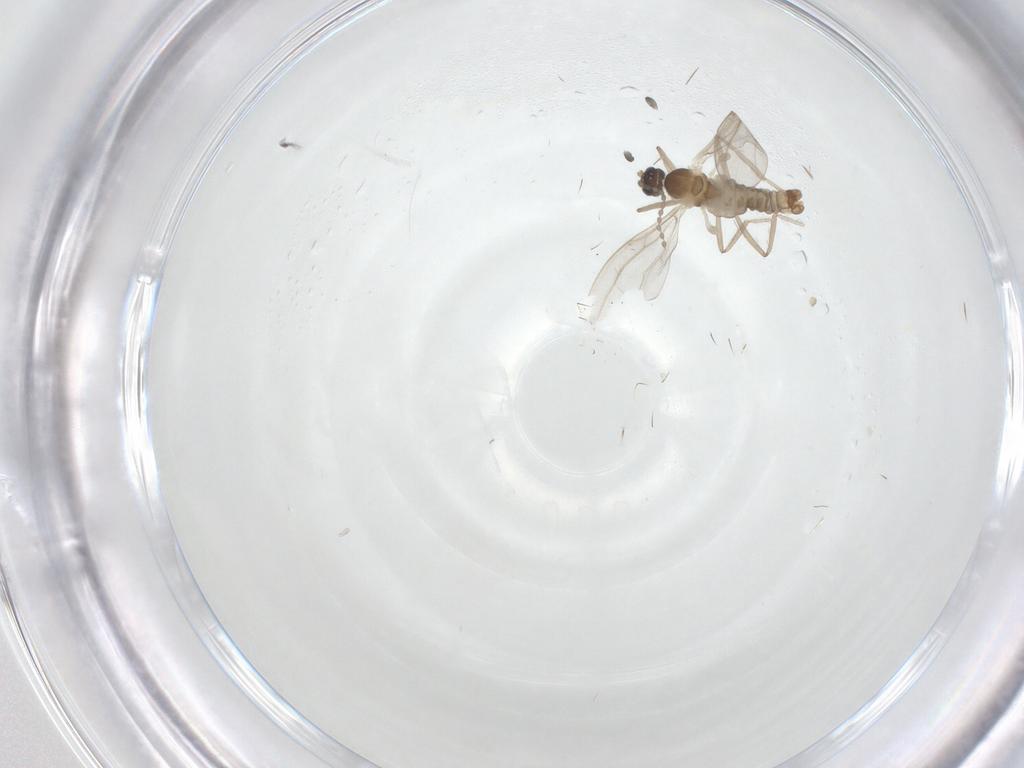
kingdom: Animalia
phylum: Arthropoda
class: Insecta
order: Diptera
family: Cecidomyiidae
